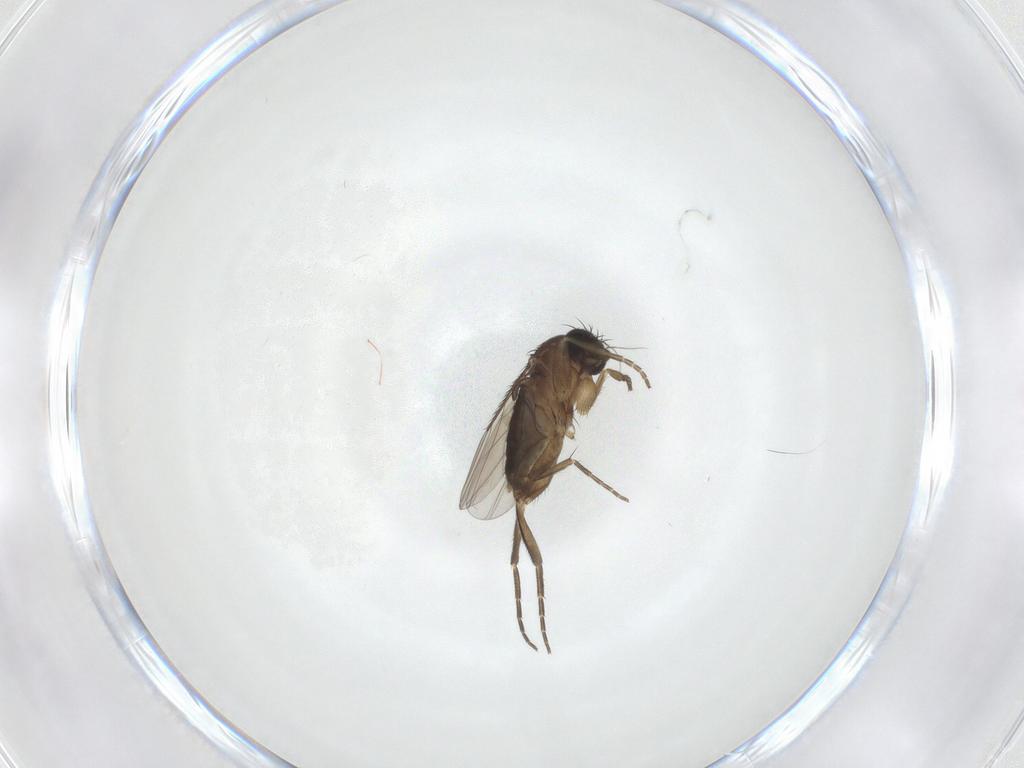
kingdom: Animalia
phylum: Arthropoda
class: Insecta
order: Diptera
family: Phoridae
